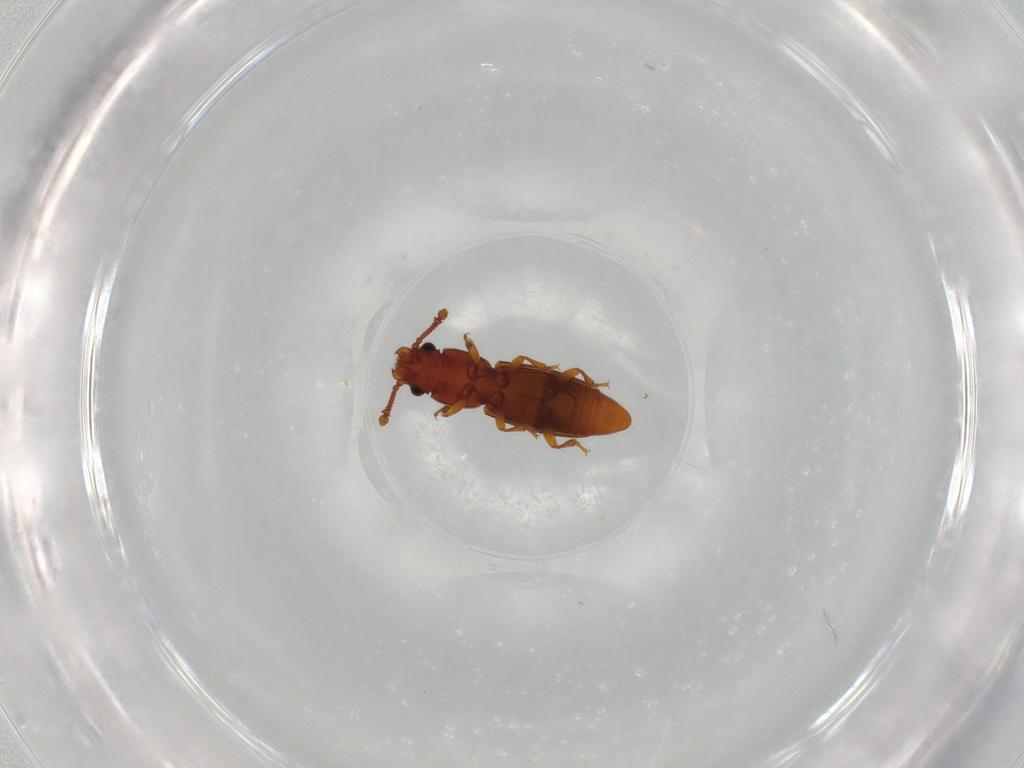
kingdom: Animalia
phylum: Arthropoda
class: Insecta
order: Coleoptera
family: Monotomidae
